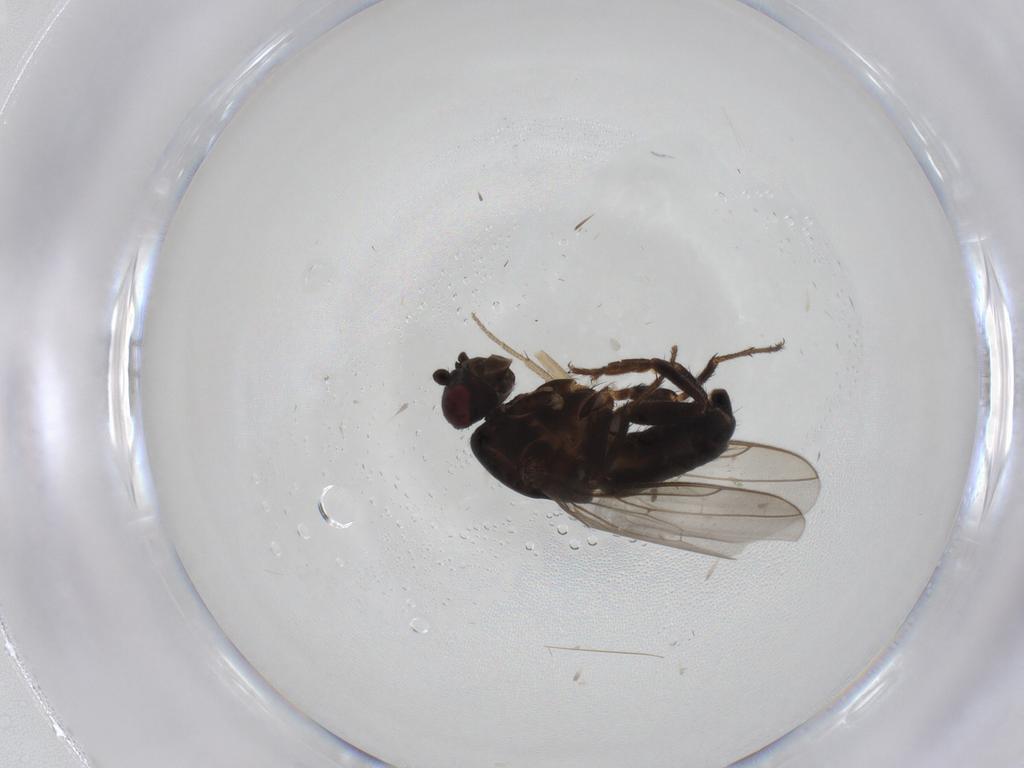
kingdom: Animalia
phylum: Arthropoda
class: Insecta
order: Diptera
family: Drosophilidae
